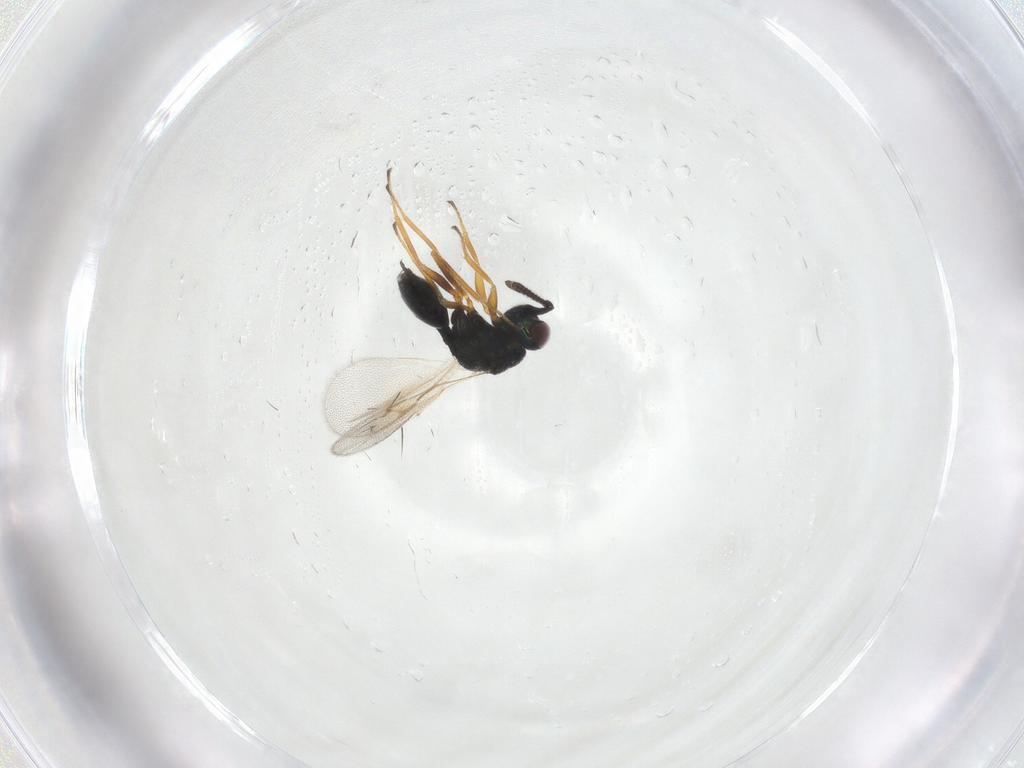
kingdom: Animalia
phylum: Arthropoda
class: Insecta
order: Hymenoptera
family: Chalcidoidea_incertae_sedis
